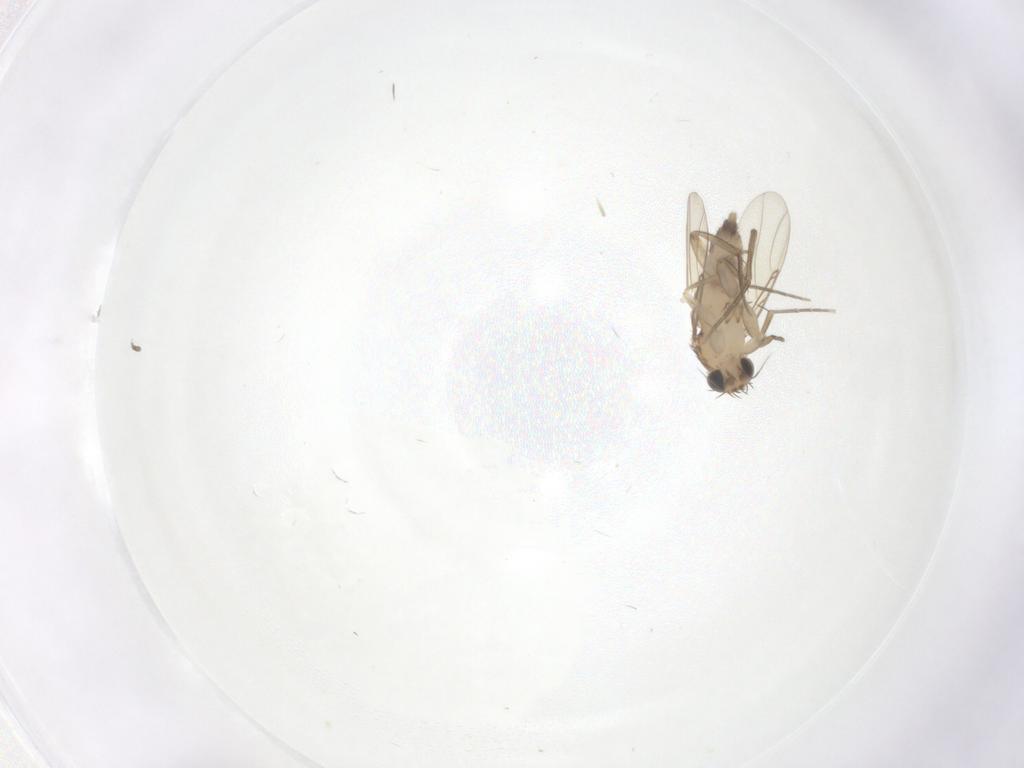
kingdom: Animalia
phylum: Arthropoda
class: Insecta
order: Diptera
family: Phoridae
